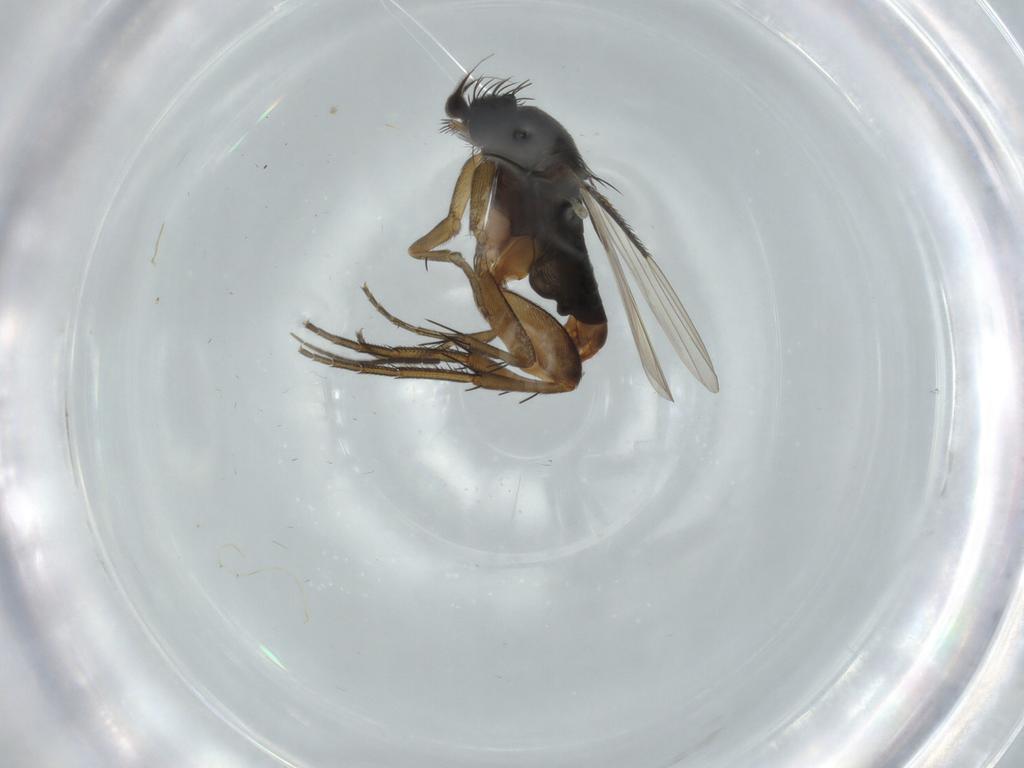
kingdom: Animalia
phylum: Arthropoda
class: Insecta
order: Diptera
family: Phoridae
